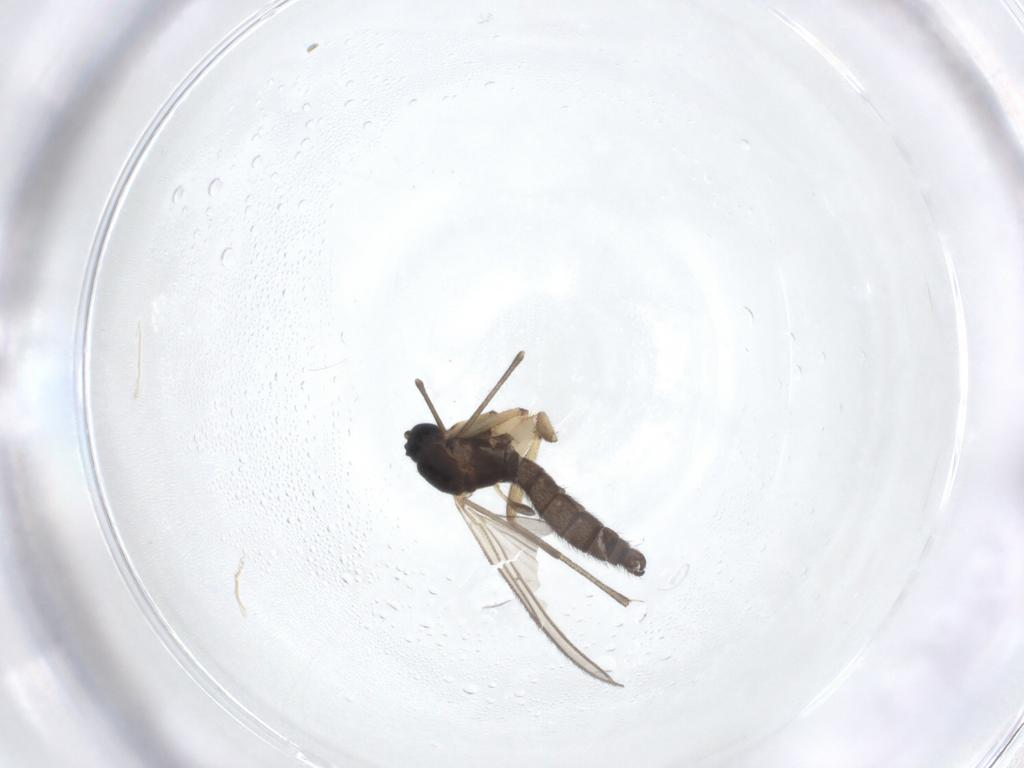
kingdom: Animalia
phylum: Arthropoda
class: Insecta
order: Diptera
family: Sciaridae
